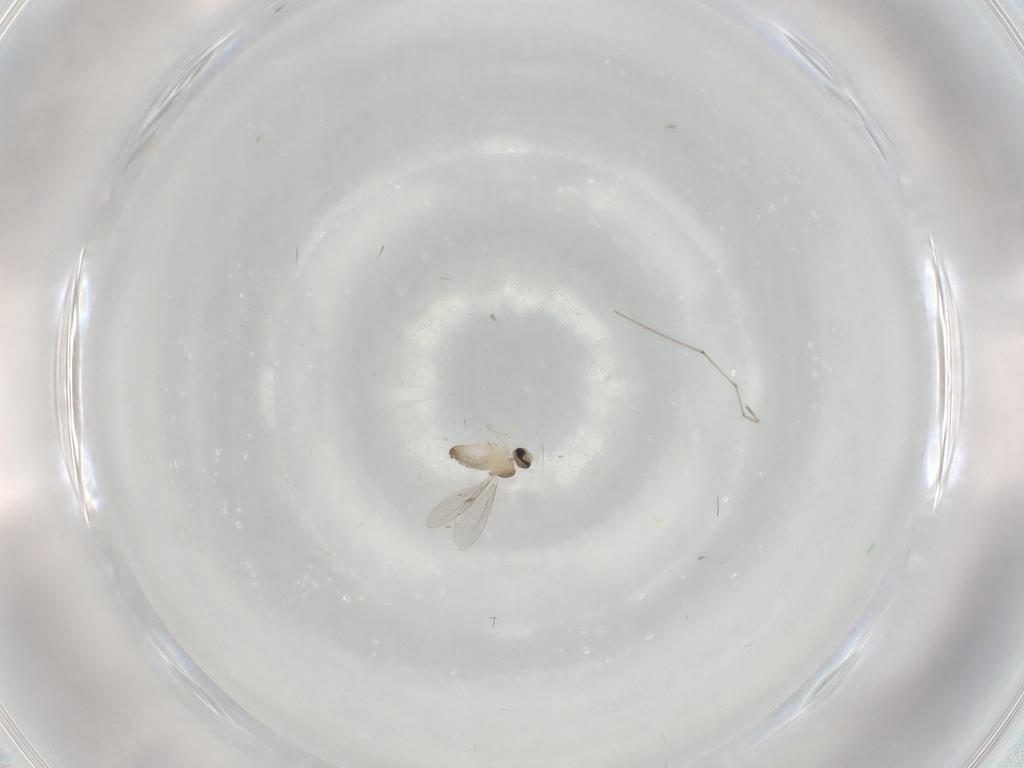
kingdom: Animalia
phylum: Arthropoda
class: Insecta
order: Diptera
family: Cecidomyiidae
